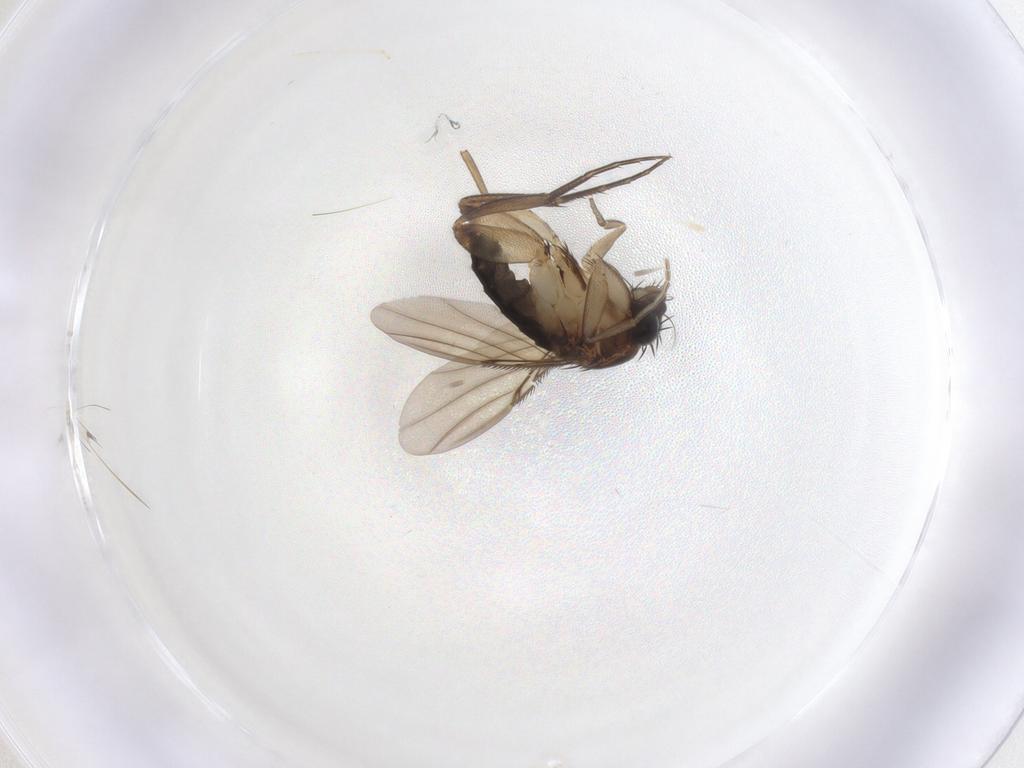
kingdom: Animalia
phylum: Arthropoda
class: Insecta
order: Diptera
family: Phoridae
